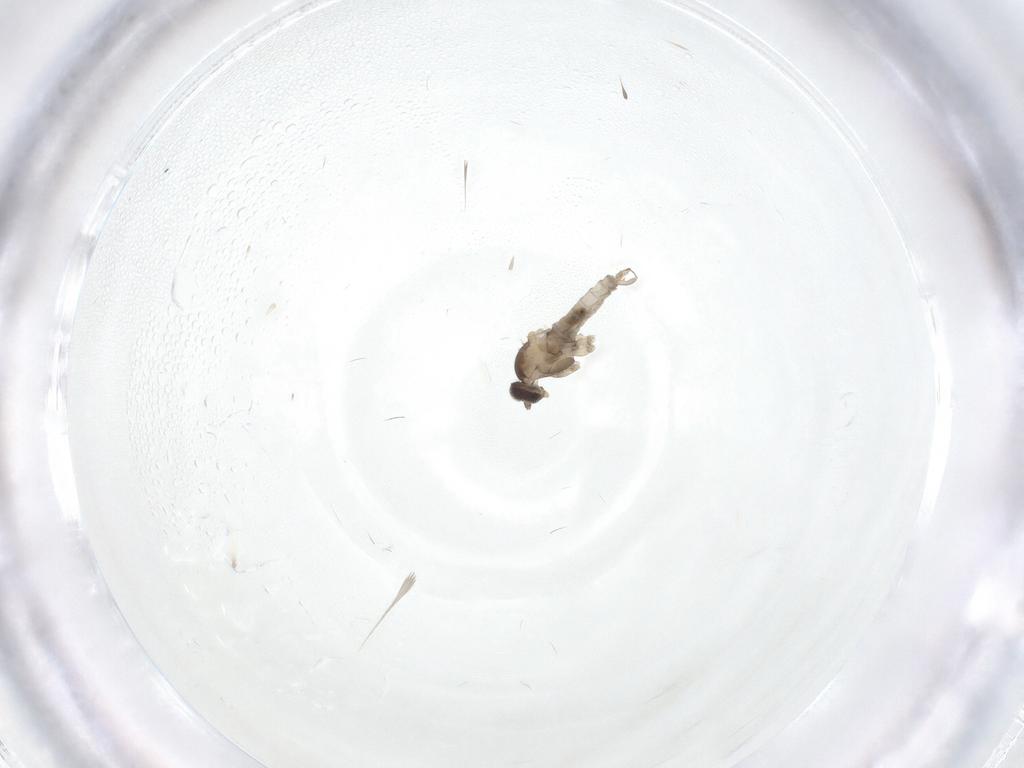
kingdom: Animalia
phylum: Arthropoda
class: Insecta
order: Diptera
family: Cecidomyiidae
